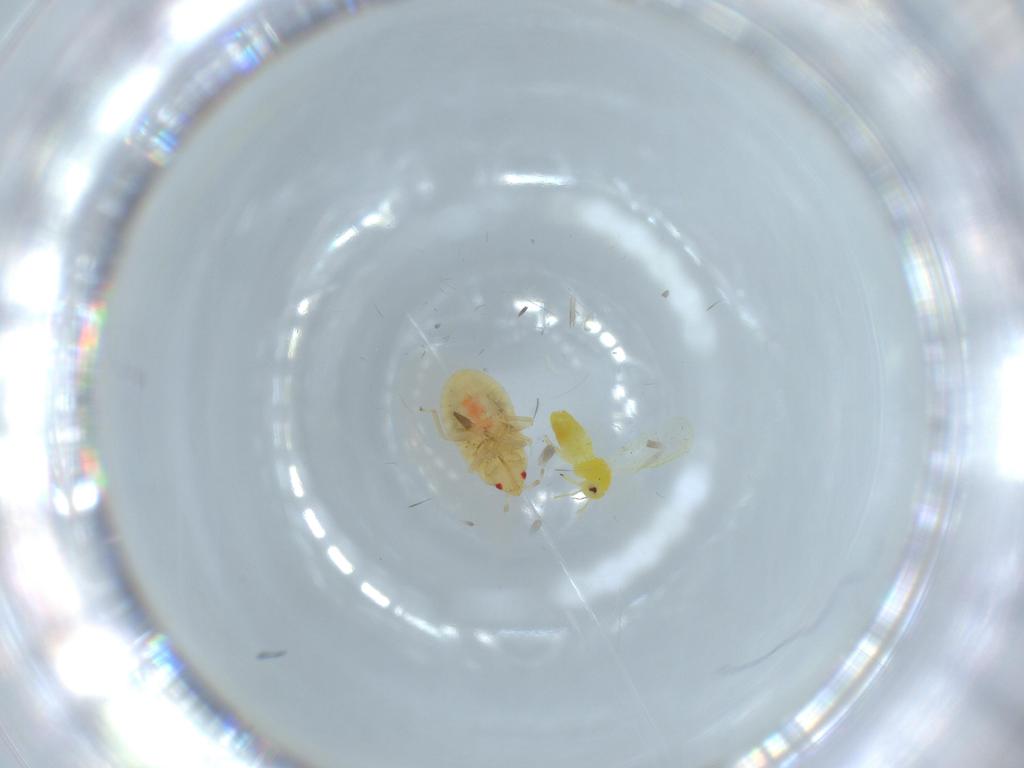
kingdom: Animalia
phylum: Arthropoda
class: Insecta
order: Hemiptera
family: Aleyrodidae
